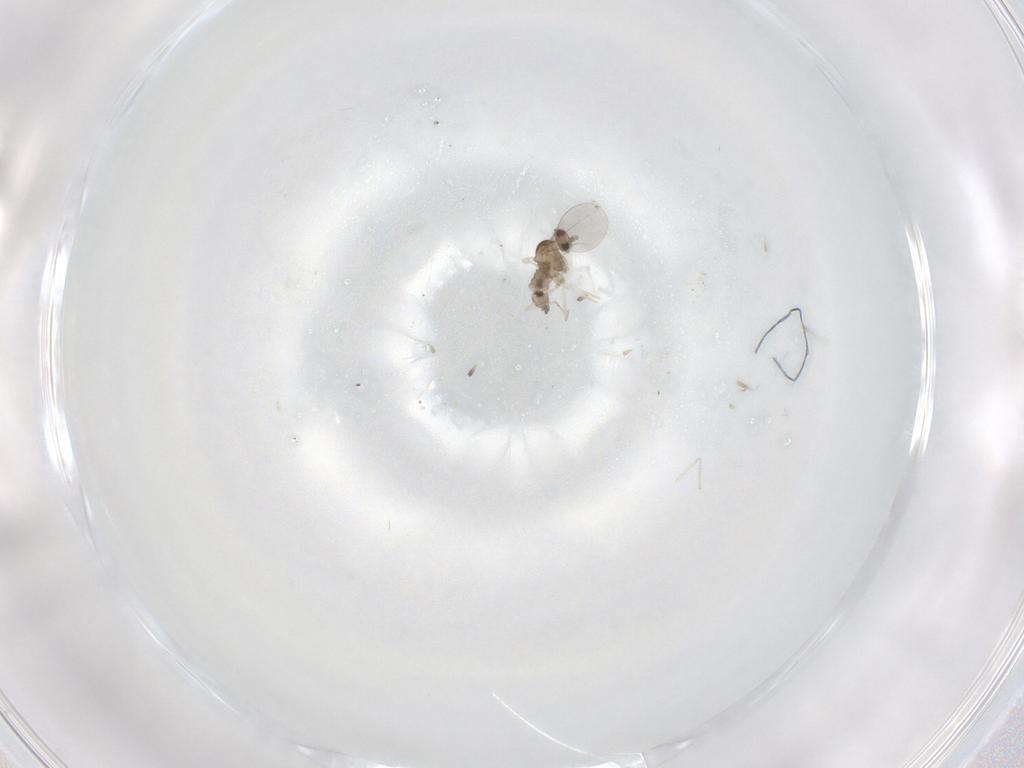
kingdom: Animalia
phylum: Arthropoda
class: Insecta
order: Diptera
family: Cecidomyiidae
